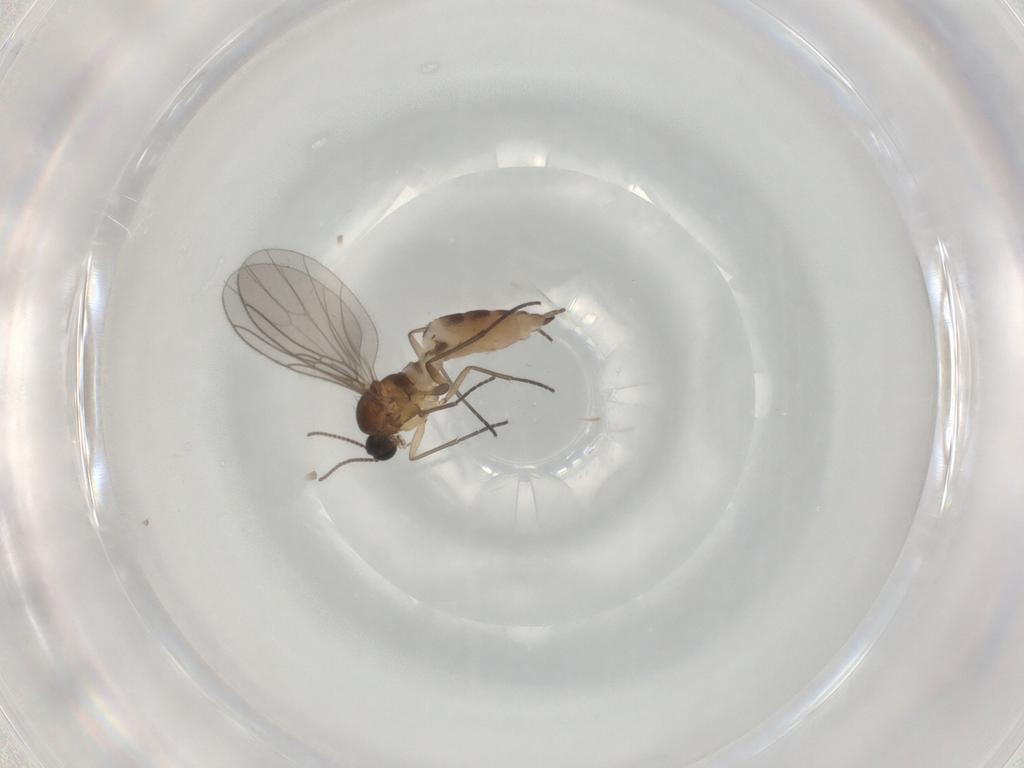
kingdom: Animalia
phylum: Arthropoda
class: Insecta
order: Diptera
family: Sciaridae
